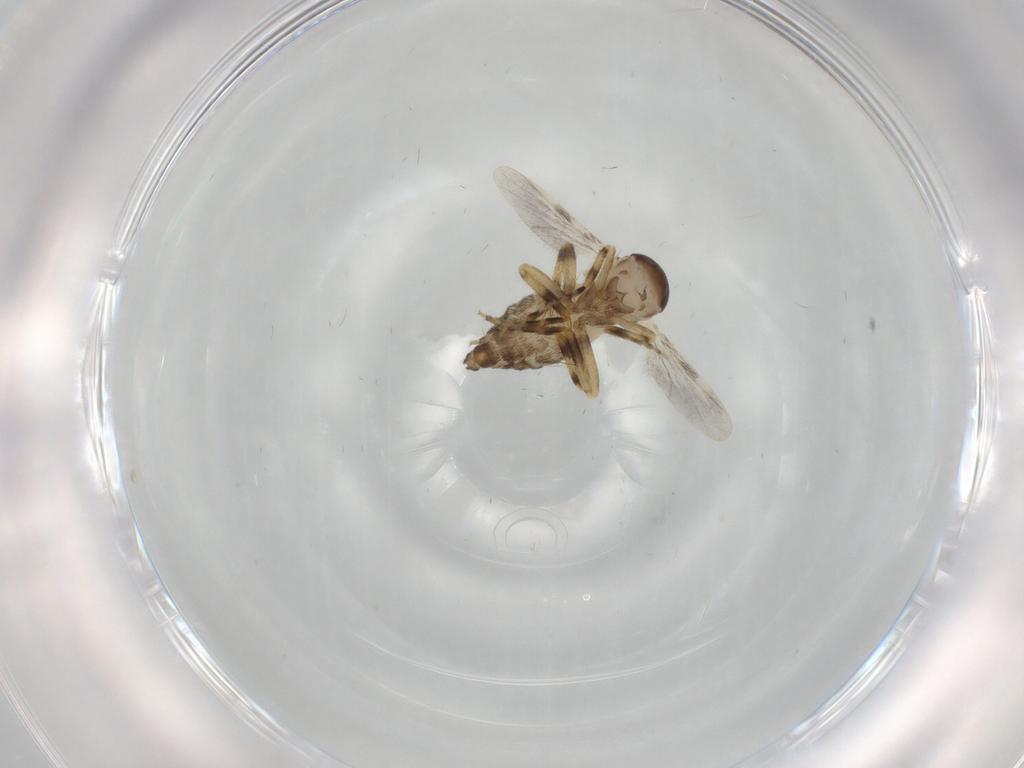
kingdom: Animalia
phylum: Arthropoda
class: Insecta
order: Diptera
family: Ceratopogonidae
